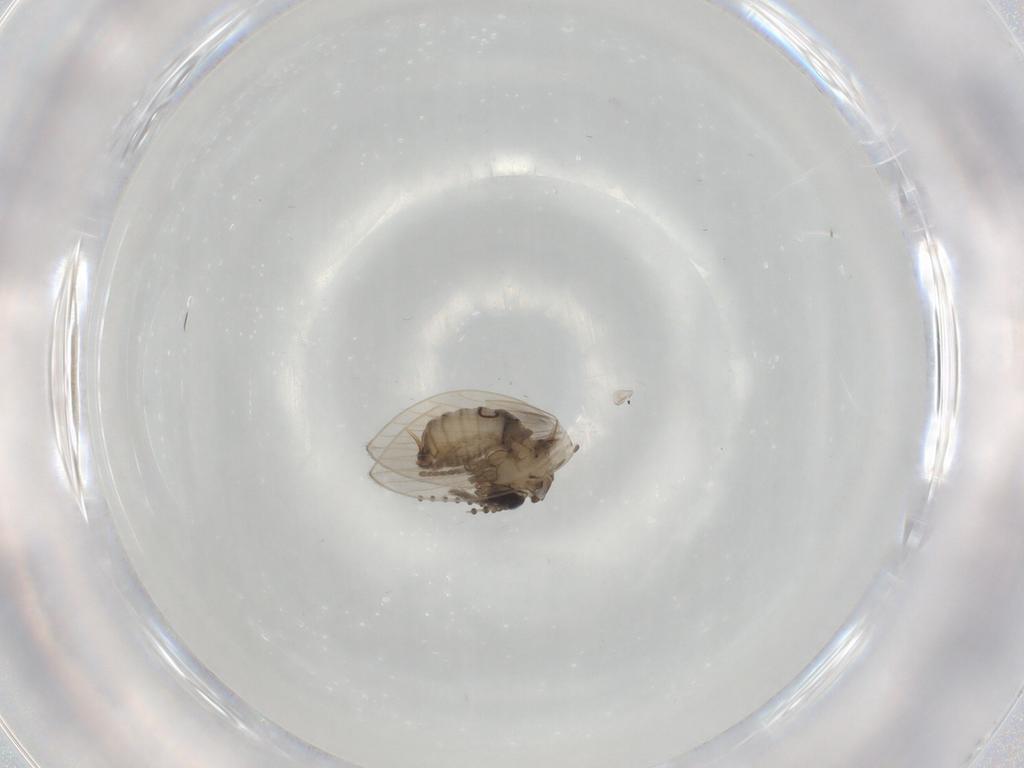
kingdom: Animalia
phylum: Arthropoda
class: Insecta
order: Diptera
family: Psychodidae
